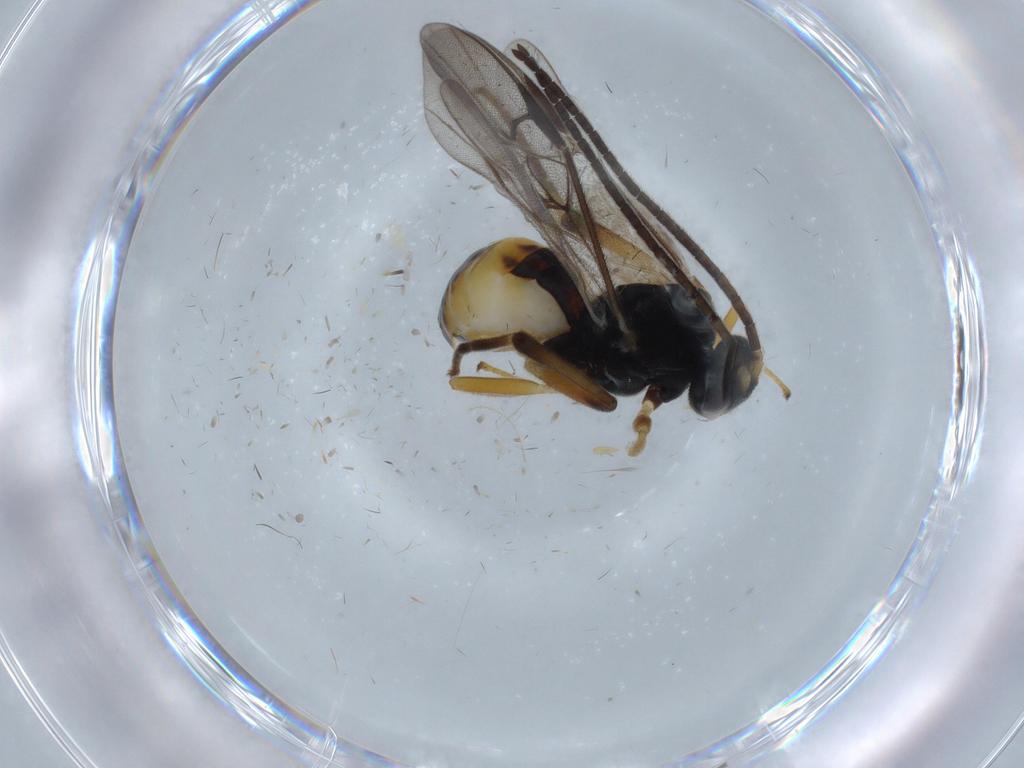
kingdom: Animalia
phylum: Arthropoda
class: Insecta
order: Hymenoptera
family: Braconidae
